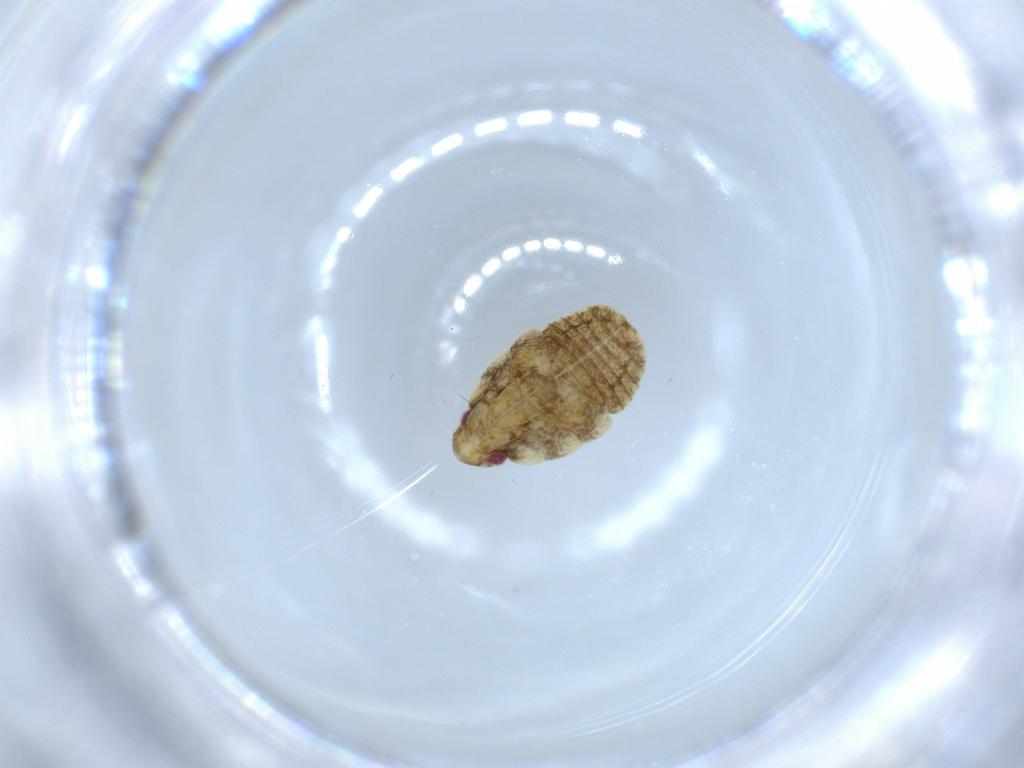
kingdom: Animalia
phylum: Arthropoda
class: Insecta
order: Hemiptera
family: Flatidae
